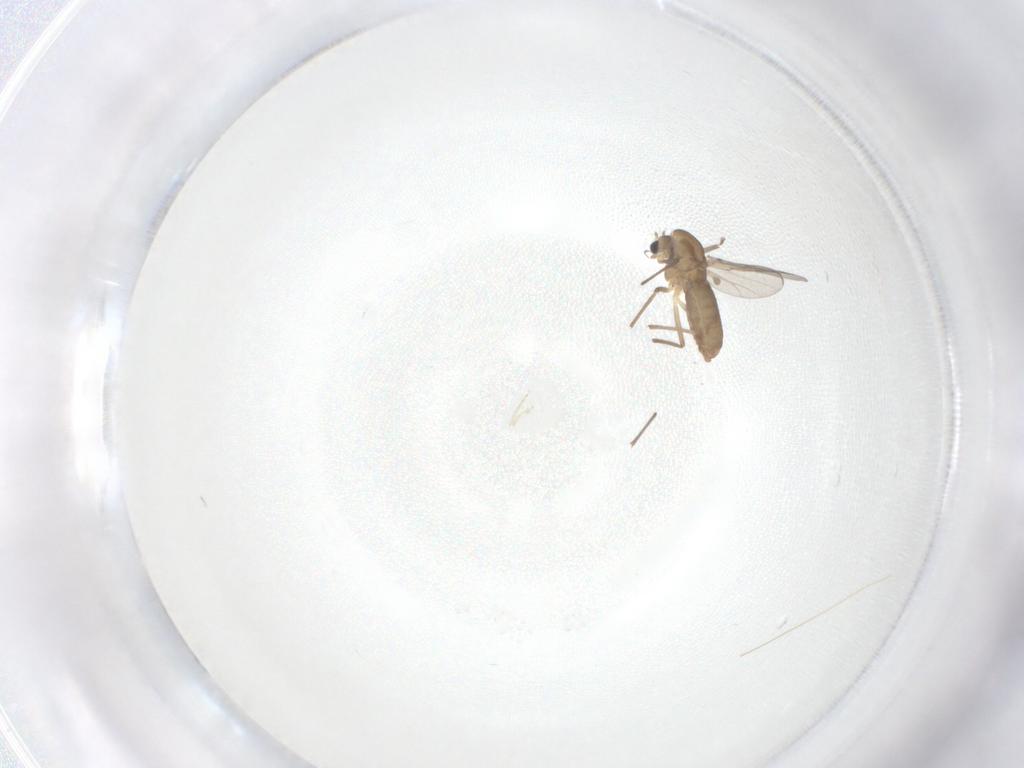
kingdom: Animalia
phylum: Arthropoda
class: Insecta
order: Diptera
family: Chironomidae
